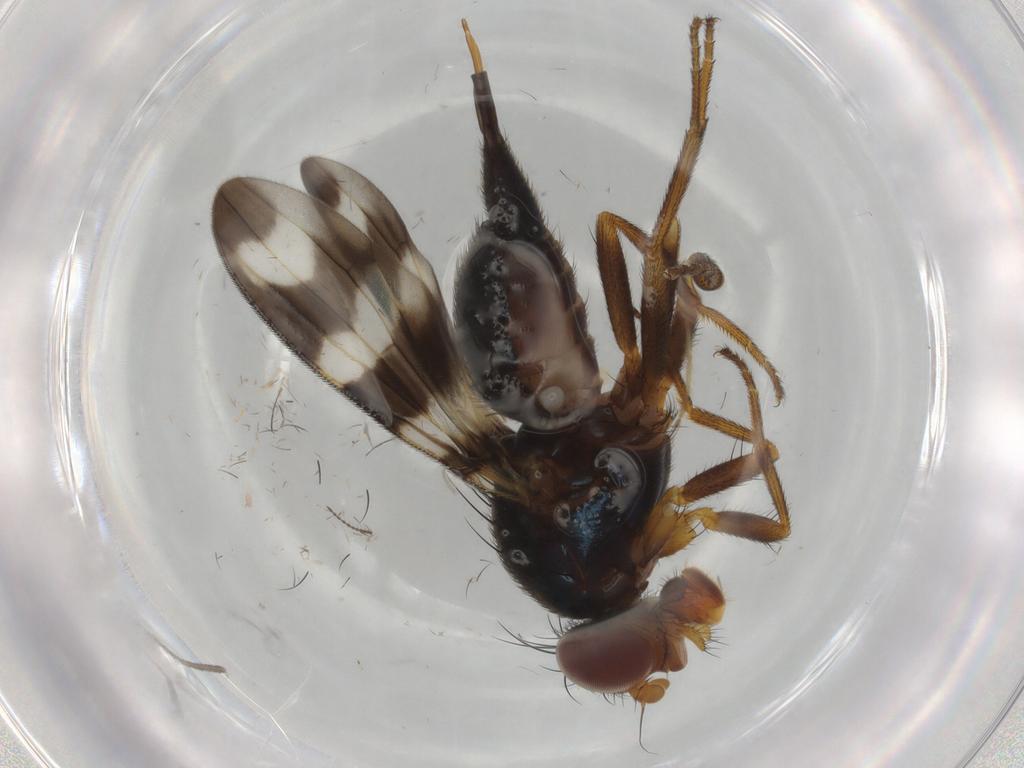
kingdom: Animalia
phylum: Arthropoda
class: Insecta
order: Diptera
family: Limoniidae
